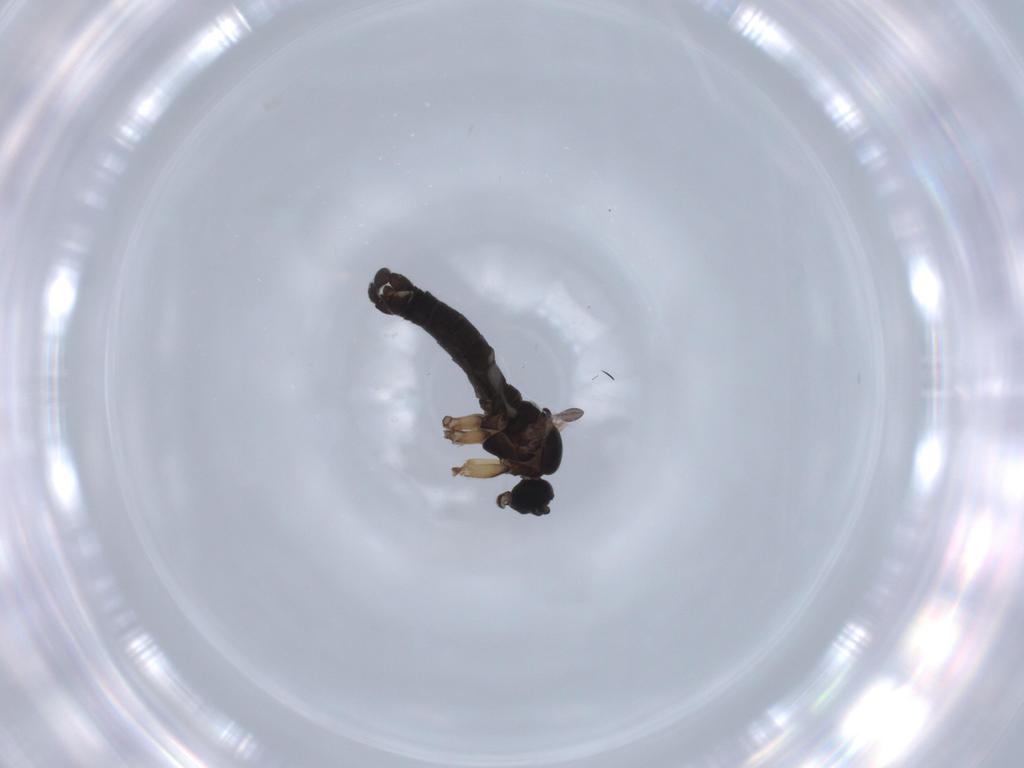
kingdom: Animalia
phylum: Arthropoda
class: Insecta
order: Diptera
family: Sciaridae
